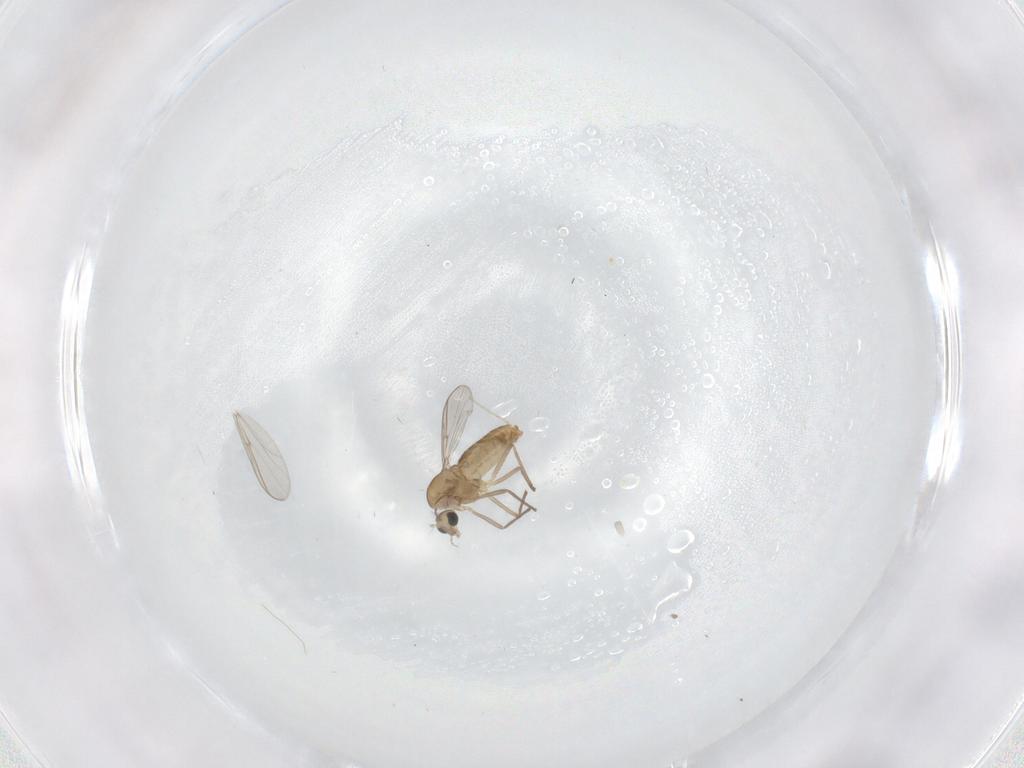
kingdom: Animalia
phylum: Arthropoda
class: Insecta
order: Diptera
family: Chironomidae
